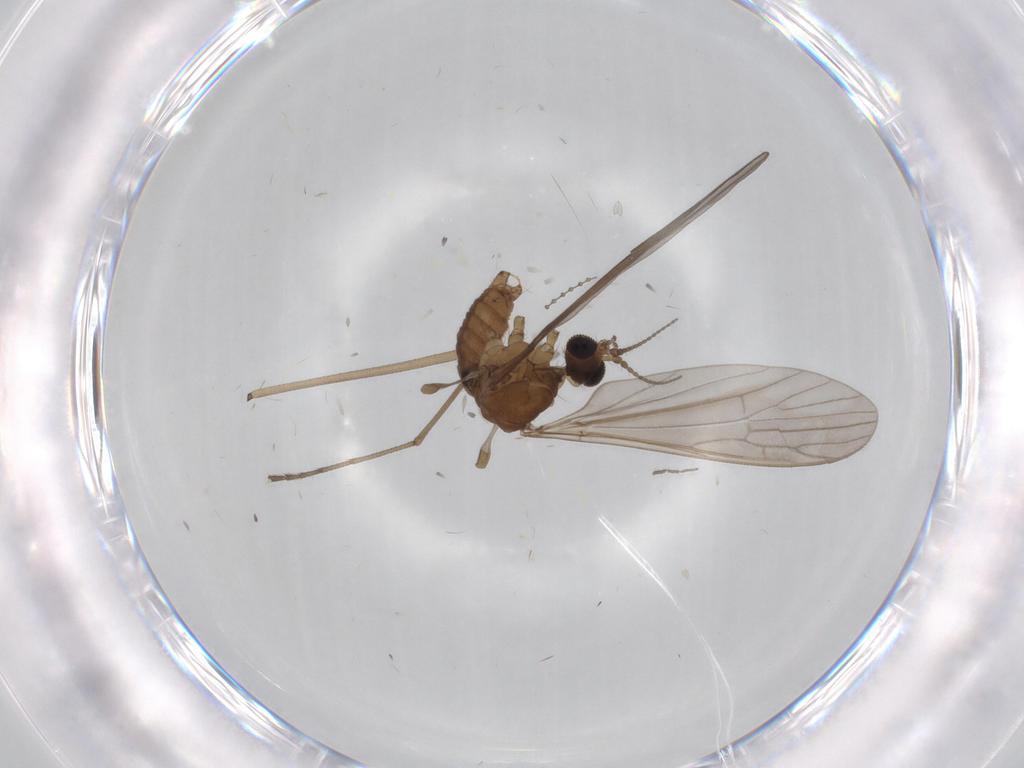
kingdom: Animalia
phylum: Arthropoda
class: Insecta
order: Diptera
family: Limoniidae
